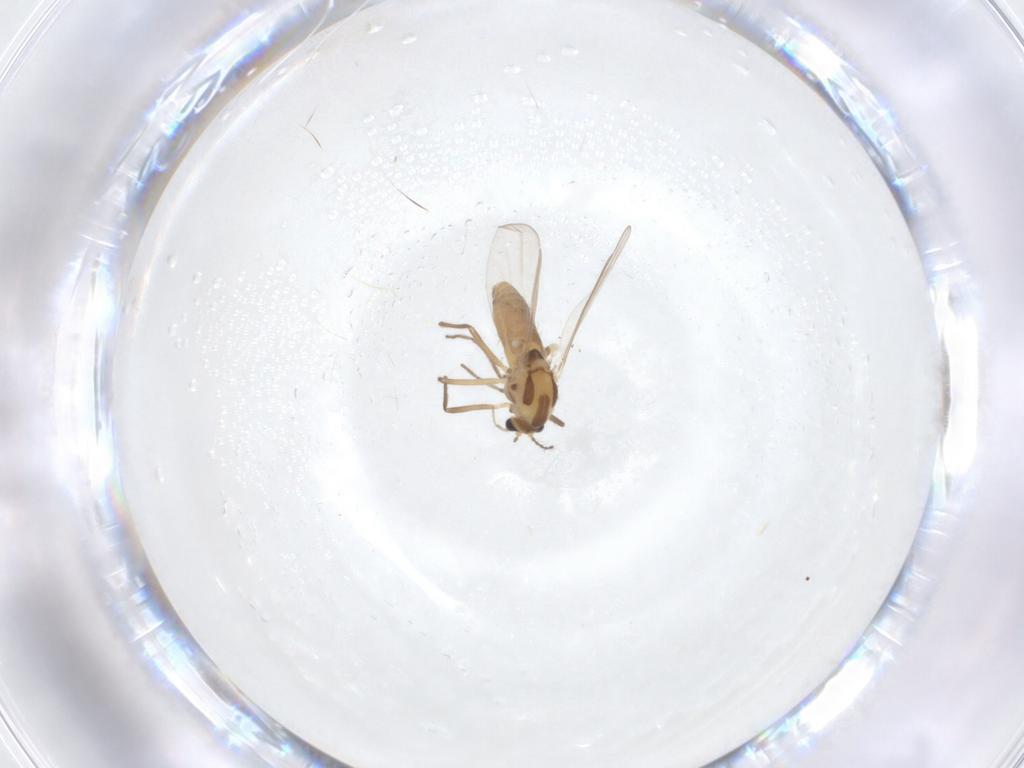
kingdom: Animalia
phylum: Arthropoda
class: Insecta
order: Diptera
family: Chironomidae
